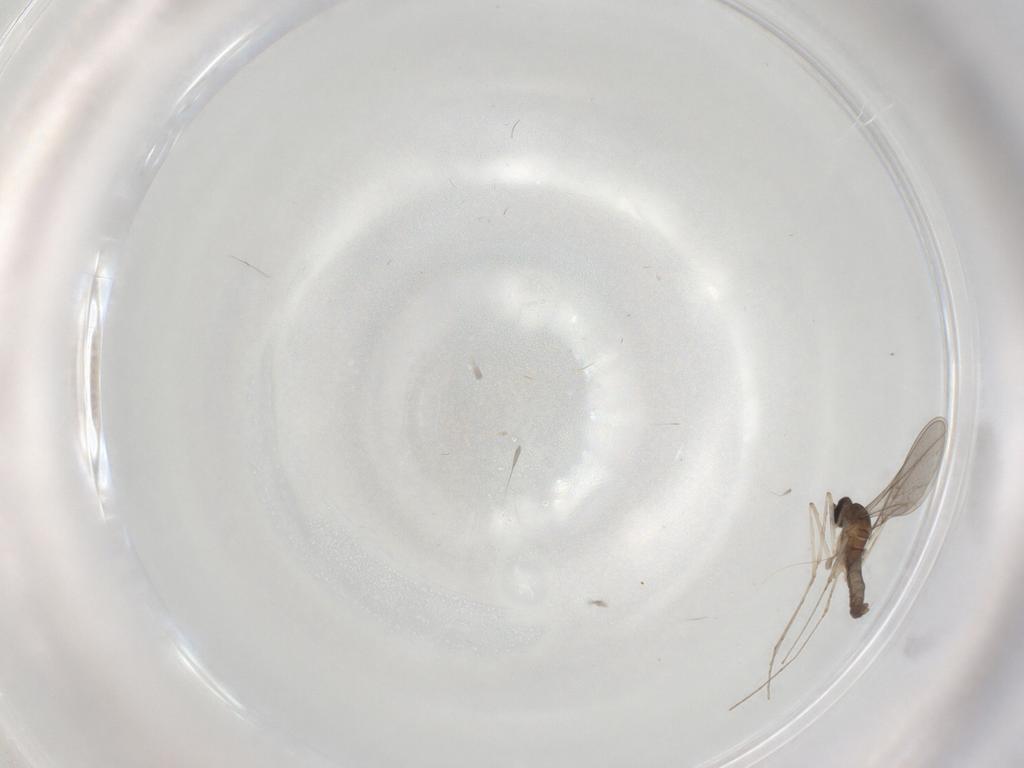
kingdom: Animalia
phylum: Arthropoda
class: Insecta
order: Diptera
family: Cecidomyiidae
